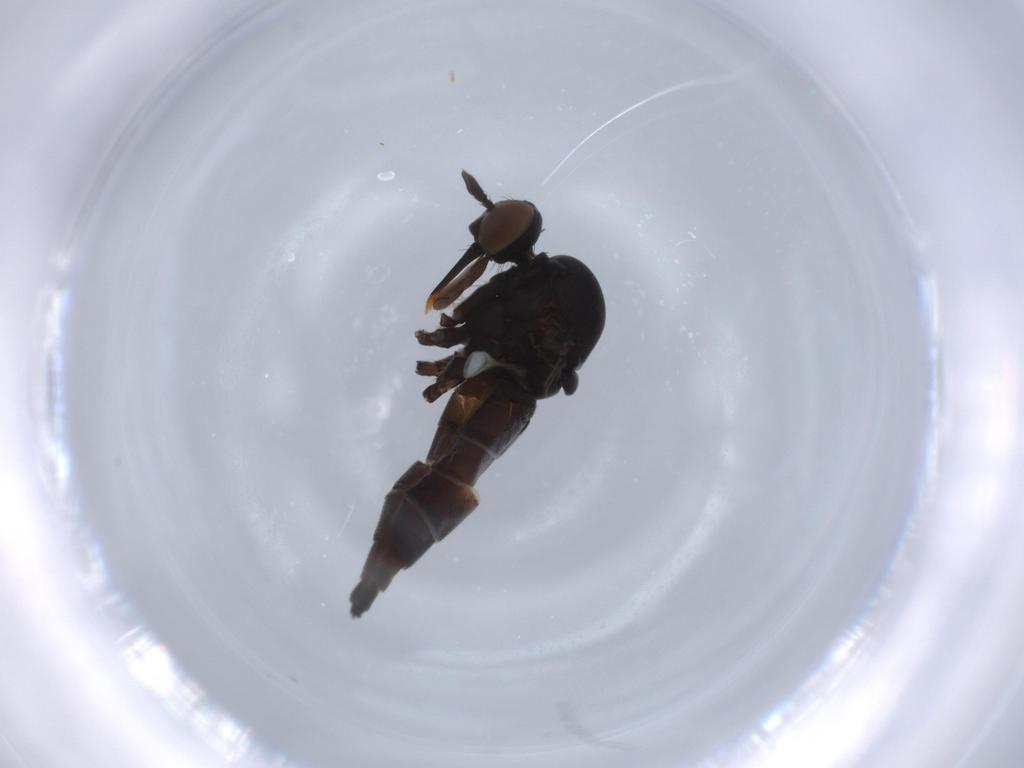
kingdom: Animalia
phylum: Arthropoda
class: Insecta
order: Diptera
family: Empididae
